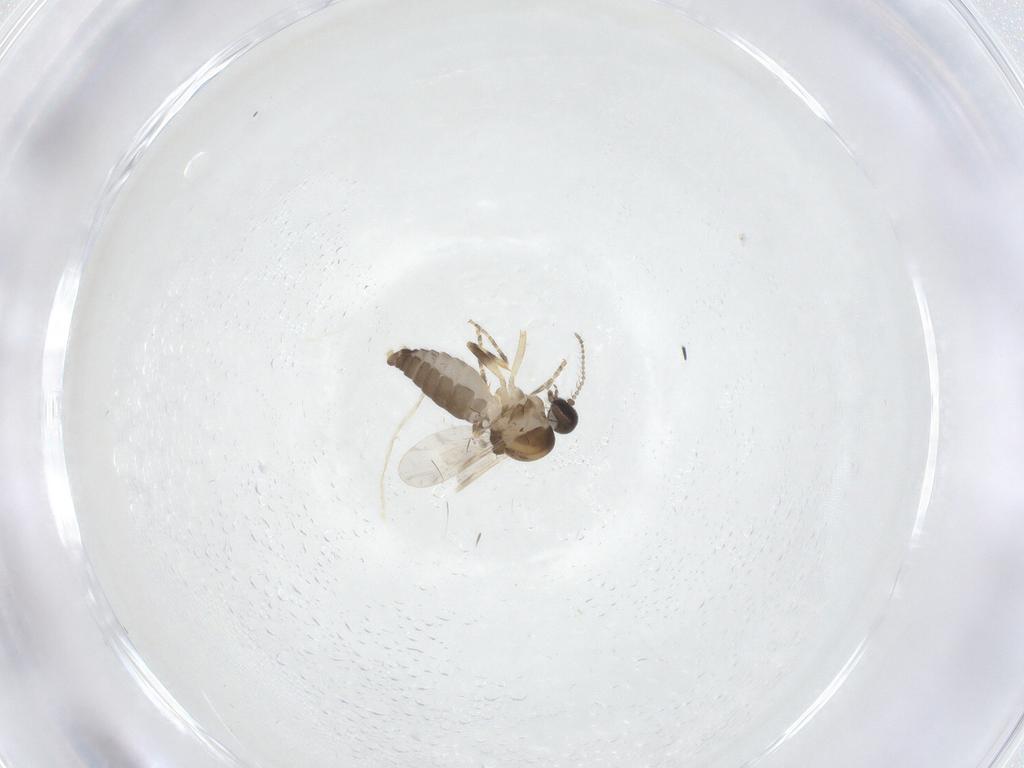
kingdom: Animalia
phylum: Arthropoda
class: Insecta
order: Diptera
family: Ceratopogonidae
